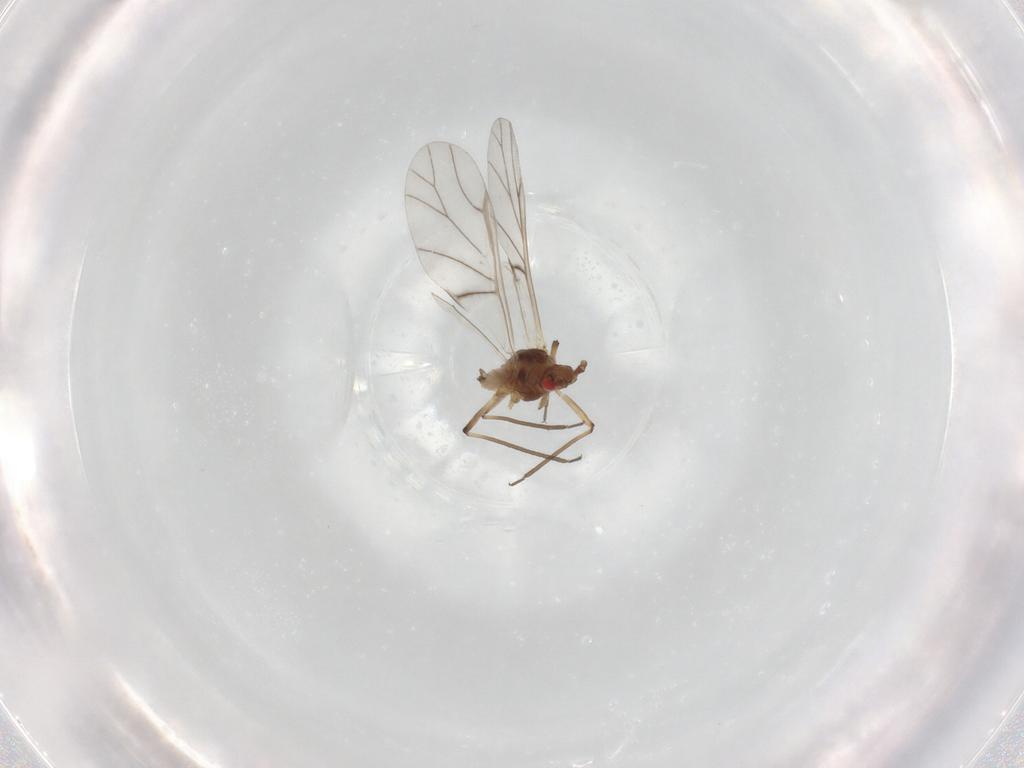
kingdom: Animalia
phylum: Arthropoda
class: Insecta
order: Hemiptera
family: Aphididae
